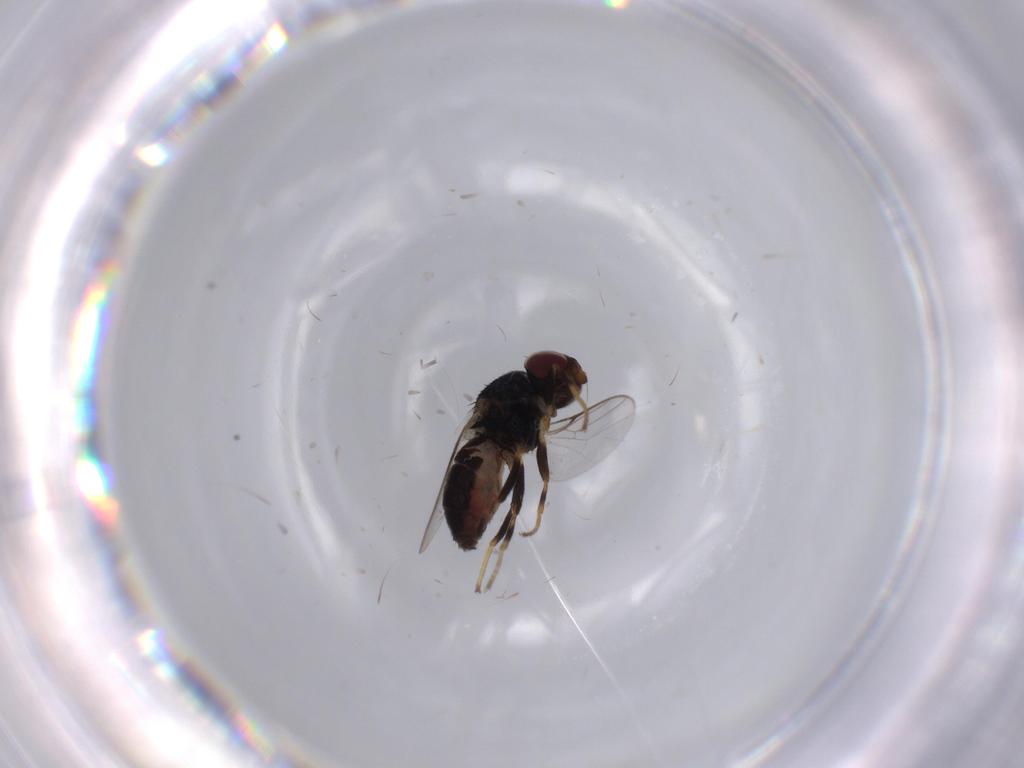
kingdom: Animalia
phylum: Arthropoda
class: Insecta
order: Diptera
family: Chloropidae
